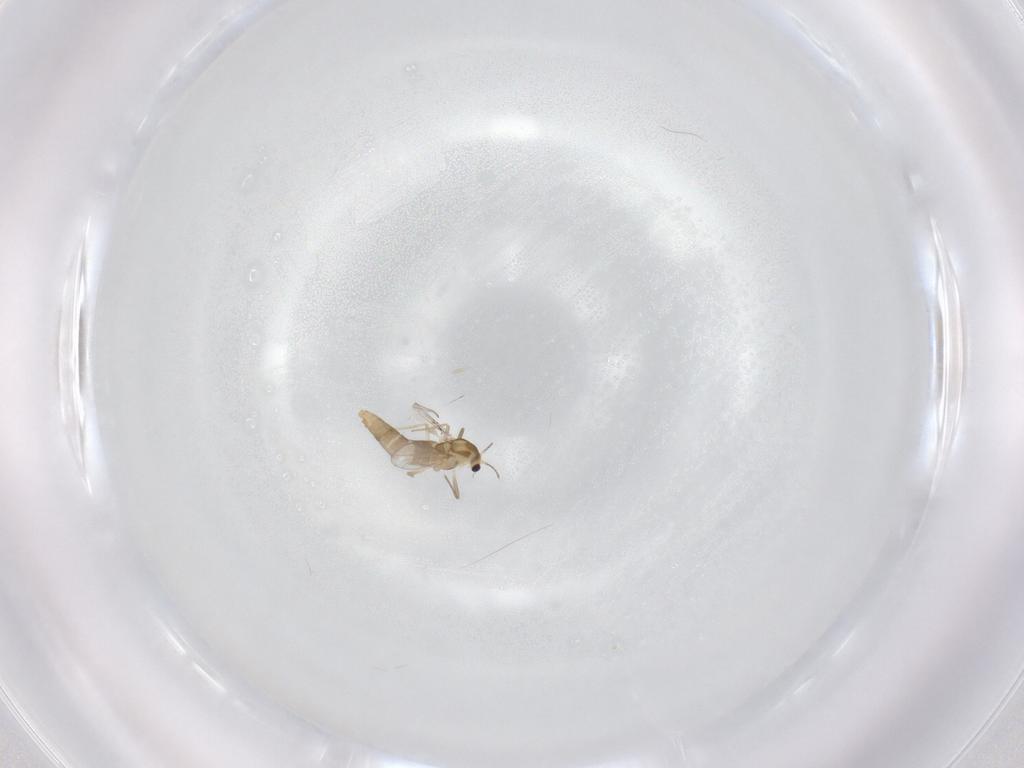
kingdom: Animalia
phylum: Arthropoda
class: Insecta
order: Diptera
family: Chironomidae
